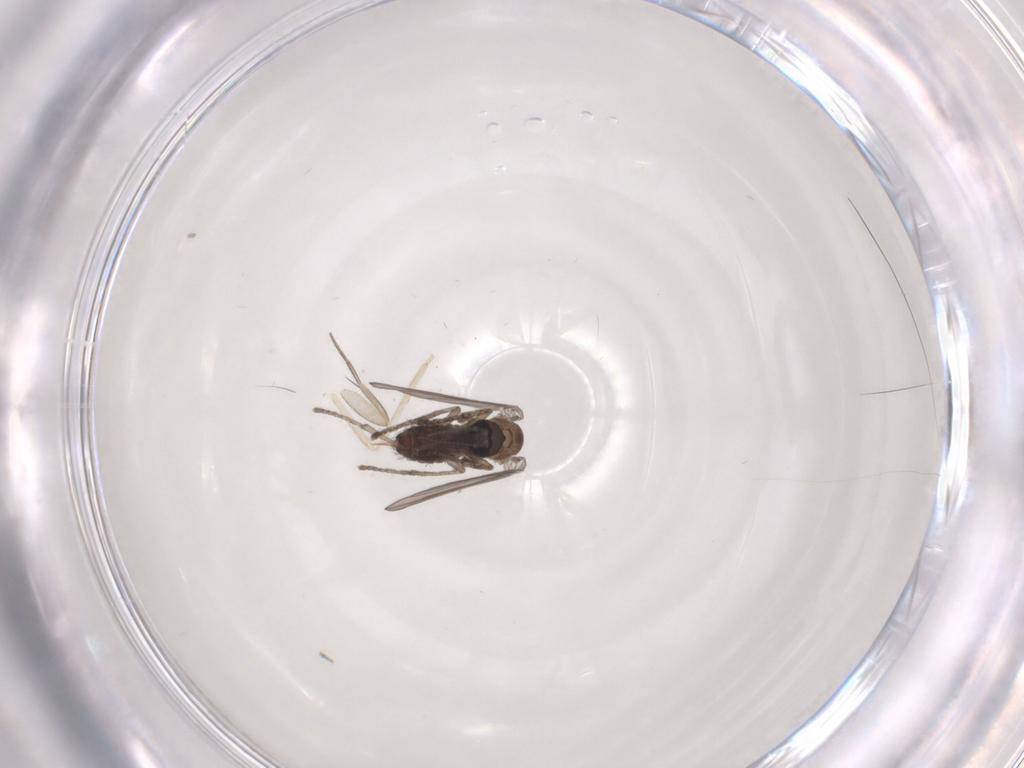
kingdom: Animalia
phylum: Arthropoda
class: Insecta
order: Diptera
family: Psychodidae
